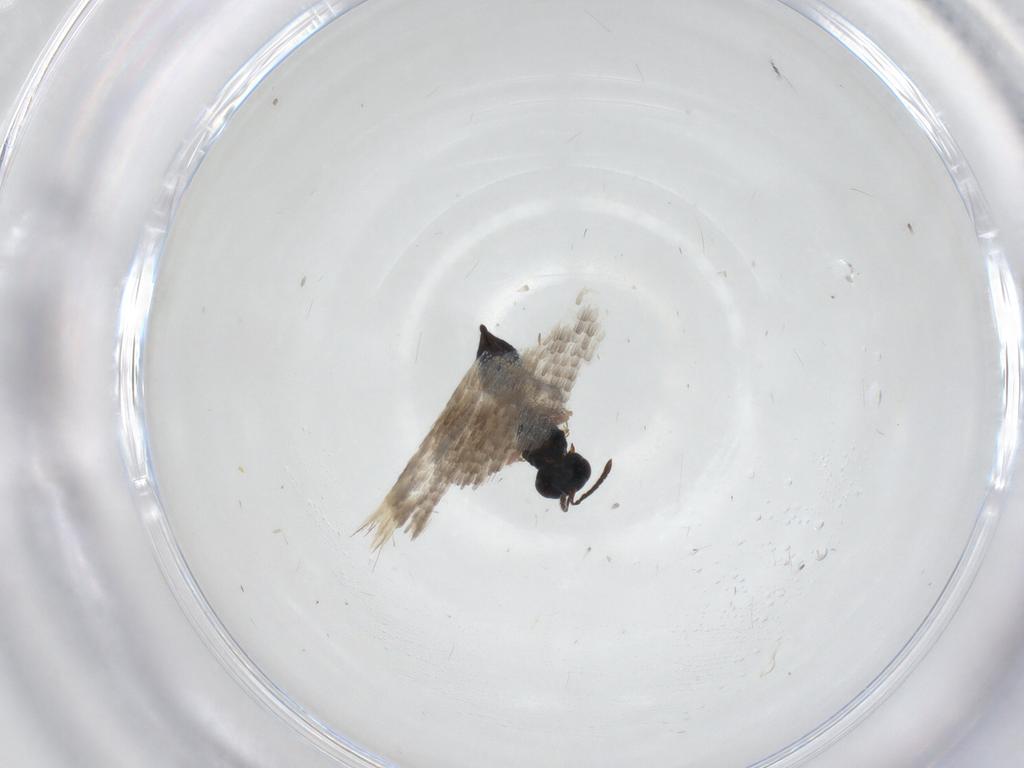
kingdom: Animalia
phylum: Arthropoda
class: Insecta
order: Hymenoptera
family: Pteromalidae
